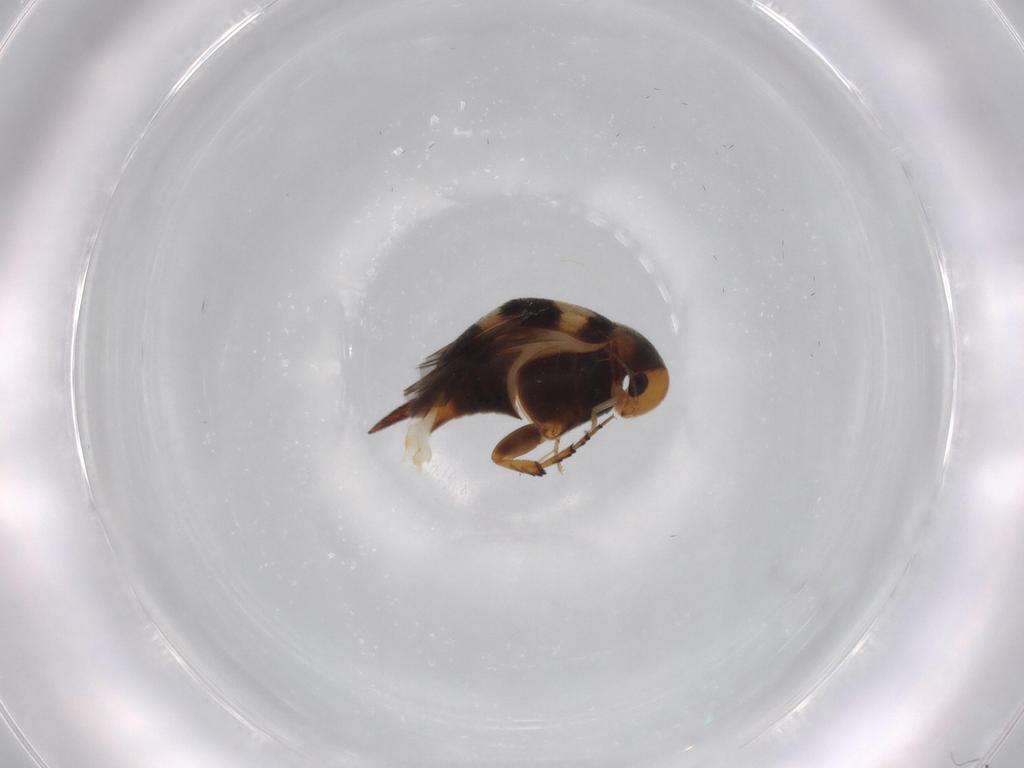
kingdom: Animalia
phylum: Arthropoda
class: Insecta
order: Coleoptera
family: Mordellidae
